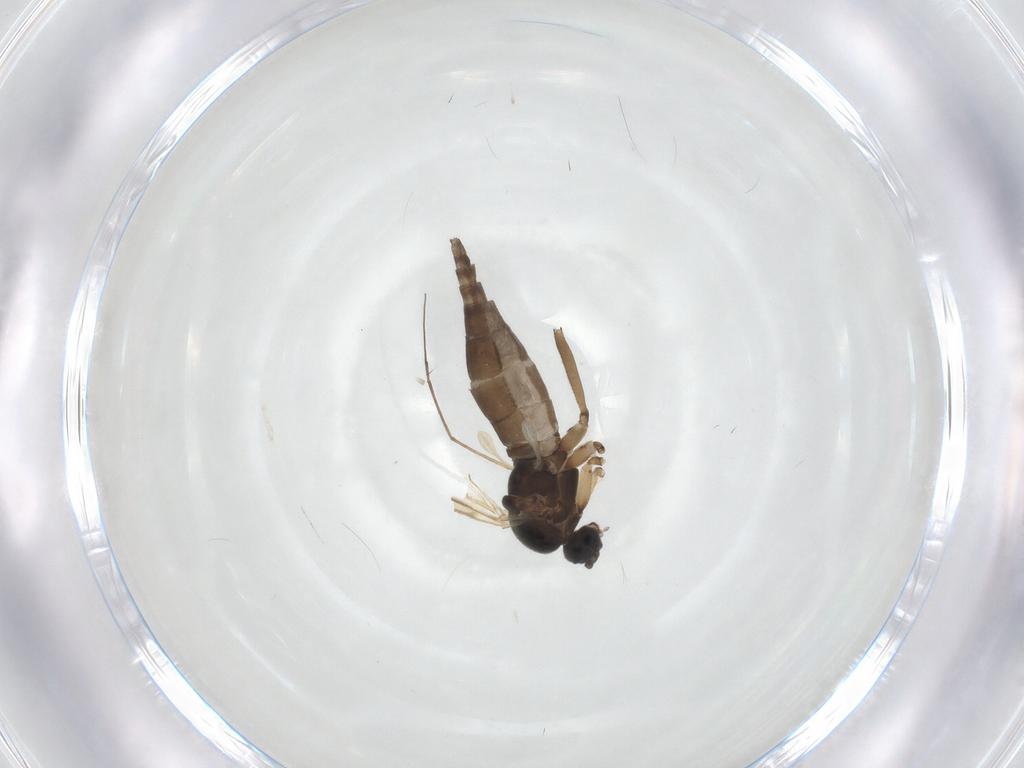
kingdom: Animalia
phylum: Arthropoda
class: Insecta
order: Diptera
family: Sciaridae
